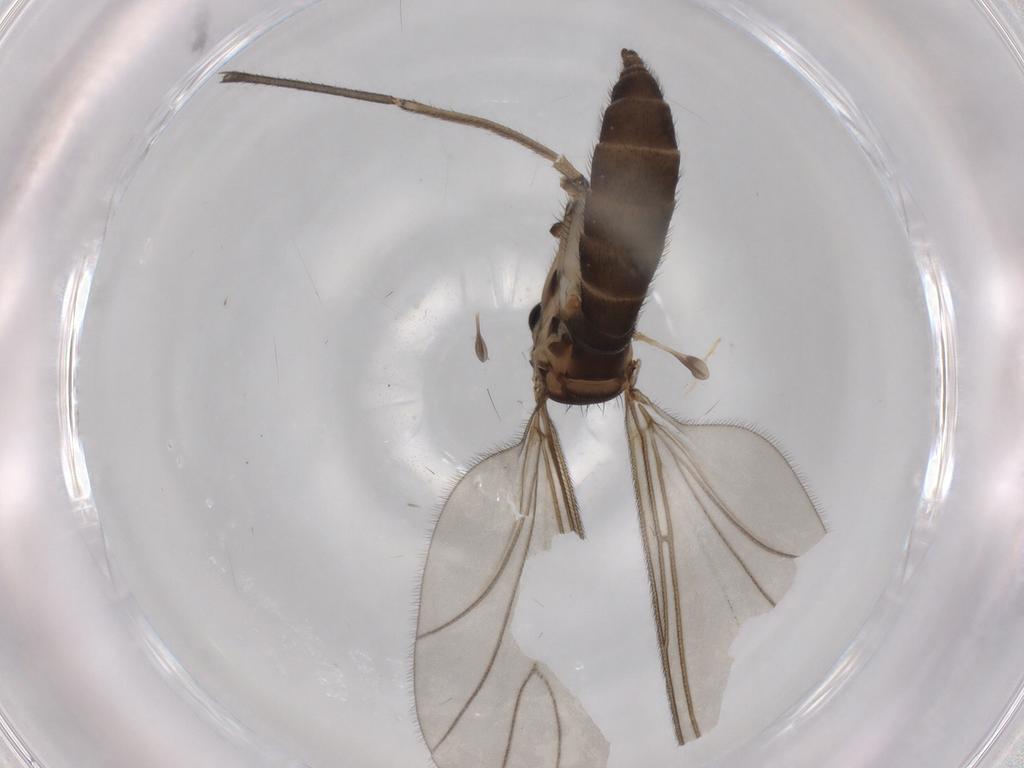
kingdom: Animalia
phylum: Arthropoda
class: Insecta
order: Diptera
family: Sciaridae
